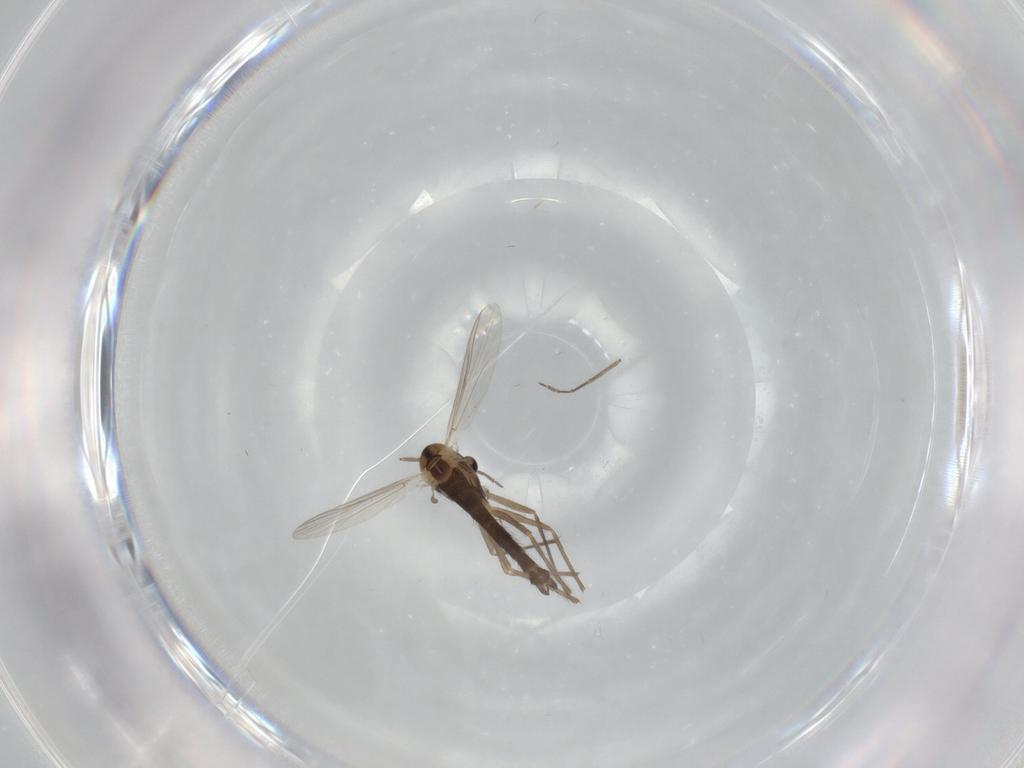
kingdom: Animalia
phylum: Arthropoda
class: Insecta
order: Diptera
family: Chironomidae
